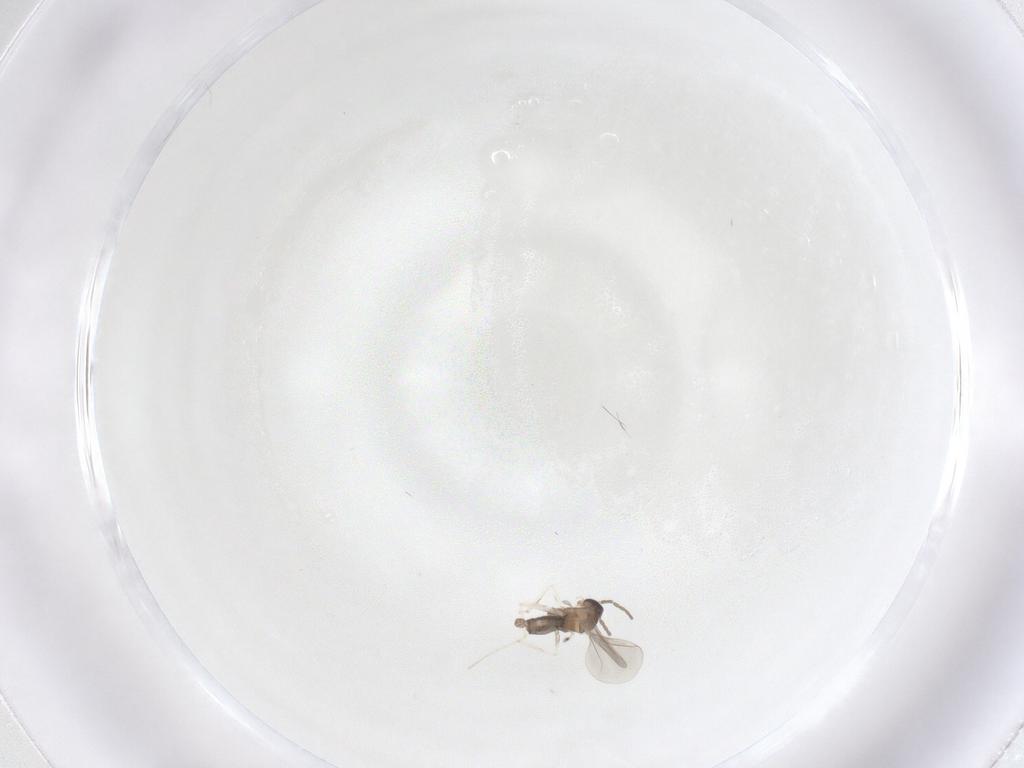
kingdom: Animalia
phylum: Arthropoda
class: Insecta
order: Diptera
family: Cecidomyiidae
